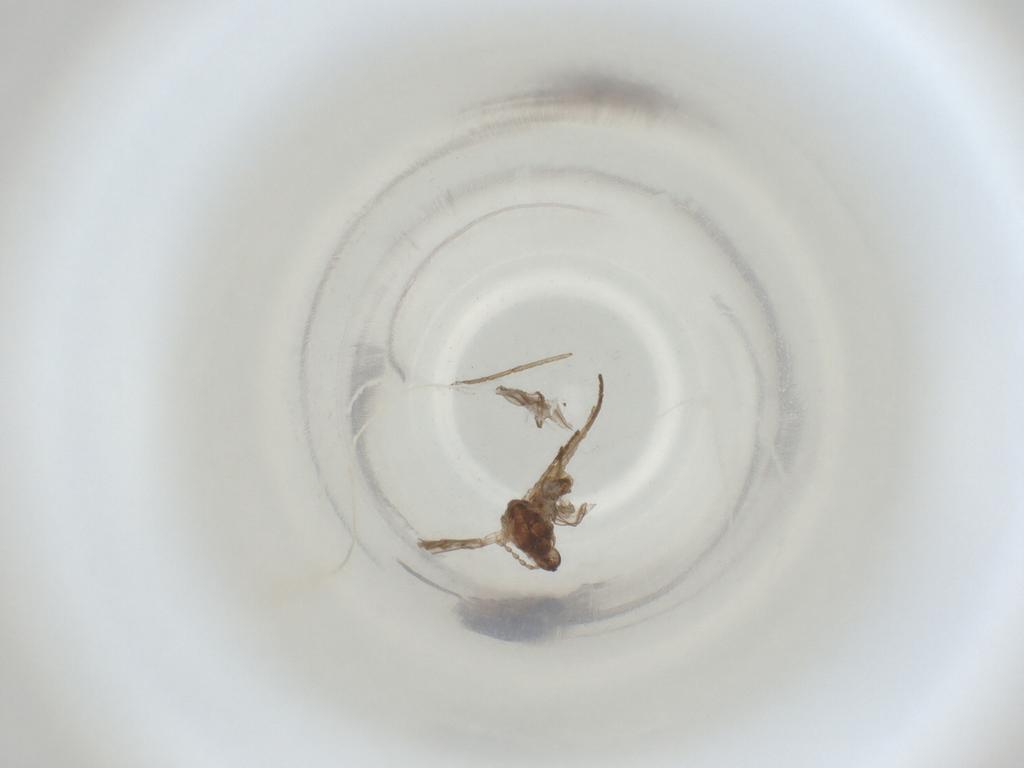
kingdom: Animalia
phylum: Arthropoda
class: Insecta
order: Diptera
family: Cecidomyiidae
